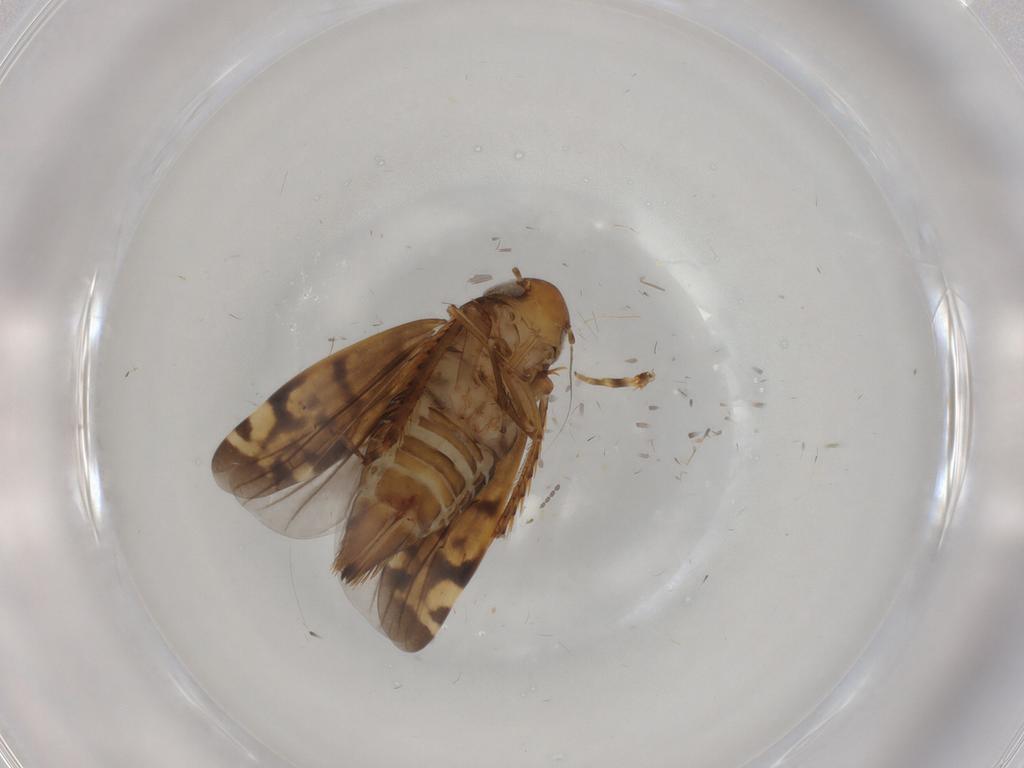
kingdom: Animalia
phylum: Arthropoda
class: Insecta
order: Hemiptera
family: Cicadellidae
